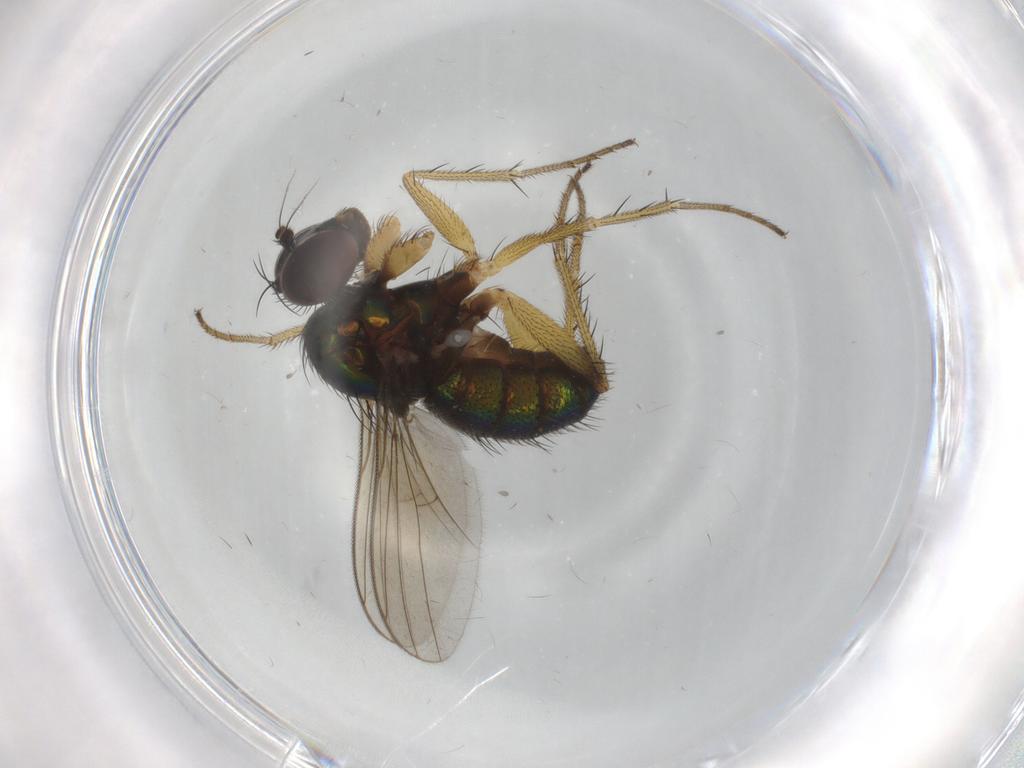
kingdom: Animalia
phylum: Arthropoda
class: Insecta
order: Diptera
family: Dolichopodidae
